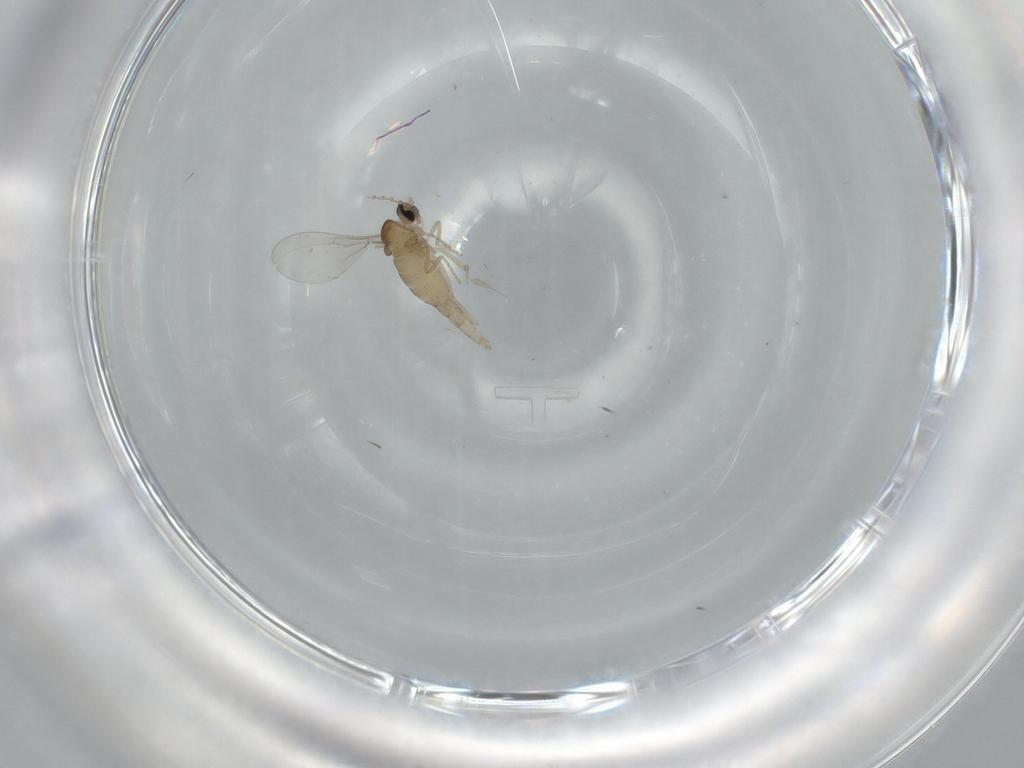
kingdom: Animalia
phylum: Arthropoda
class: Insecta
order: Diptera
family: Cecidomyiidae
